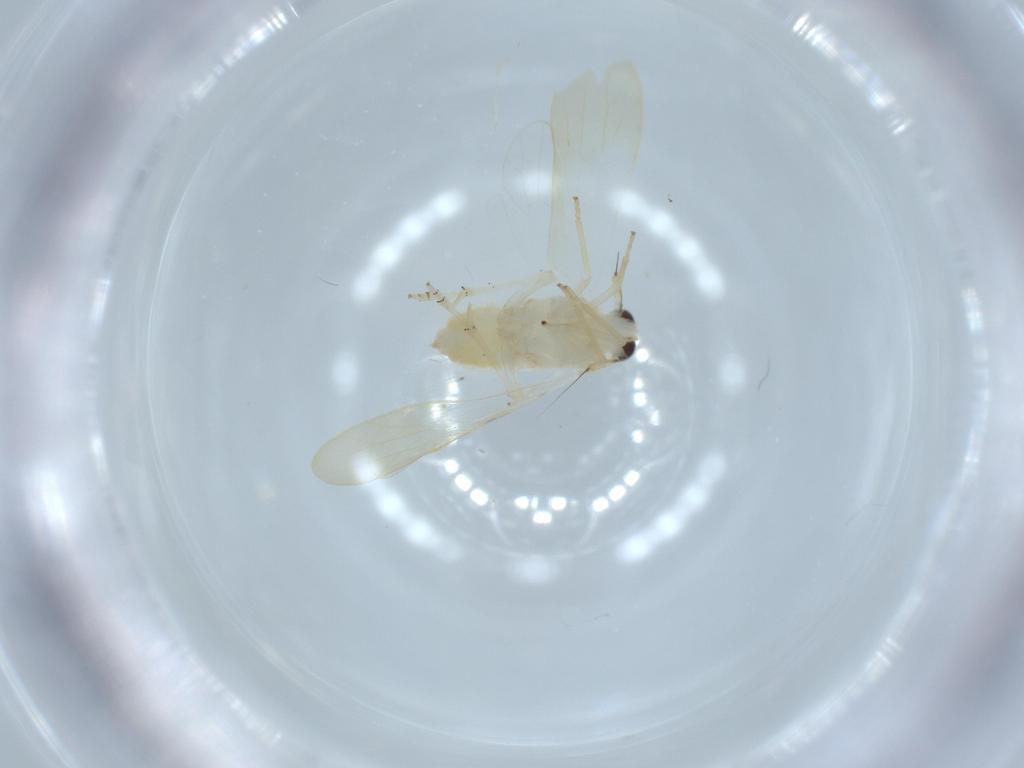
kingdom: Animalia
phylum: Arthropoda
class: Insecta
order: Hemiptera
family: Delphacidae
